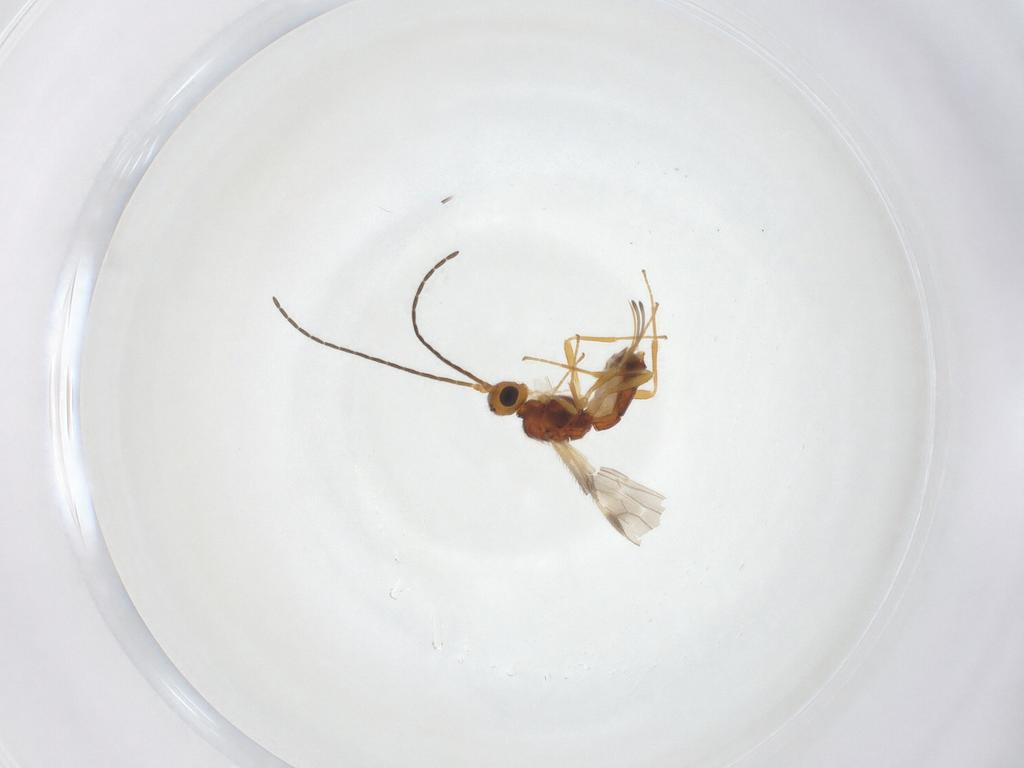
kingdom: Animalia
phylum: Arthropoda
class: Insecta
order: Hymenoptera
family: Braconidae
